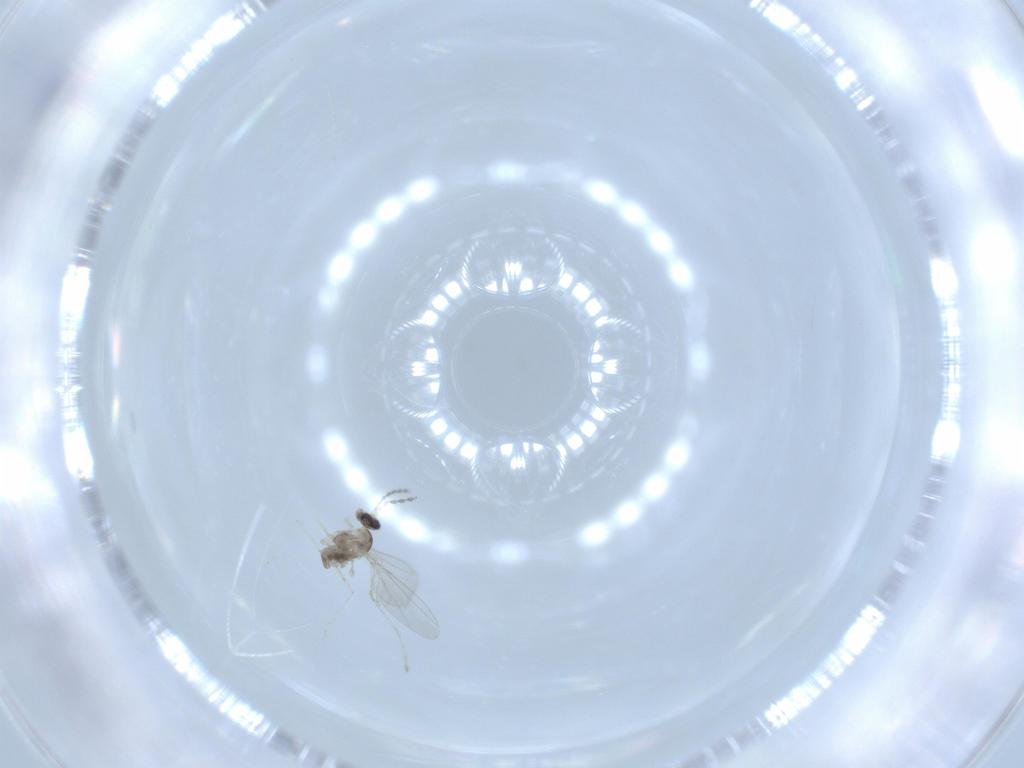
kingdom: Animalia
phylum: Arthropoda
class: Insecta
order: Diptera
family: Cecidomyiidae
